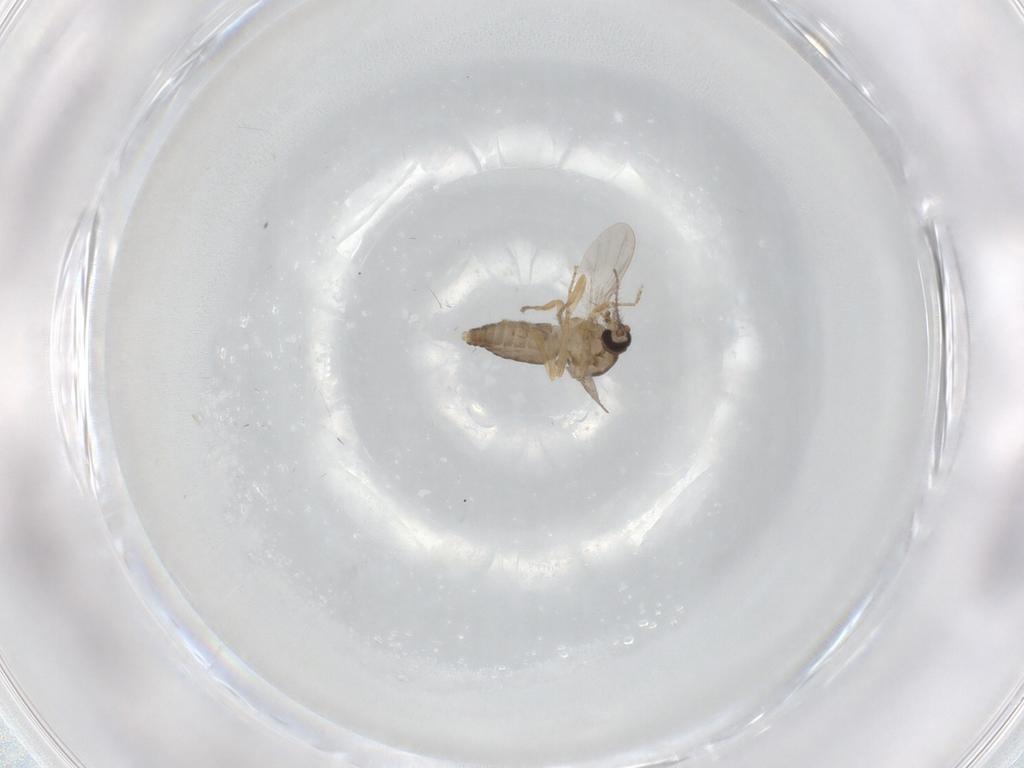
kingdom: Animalia
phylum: Arthropoda
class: Insecta
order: Diptera
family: Ceratopogonidae
